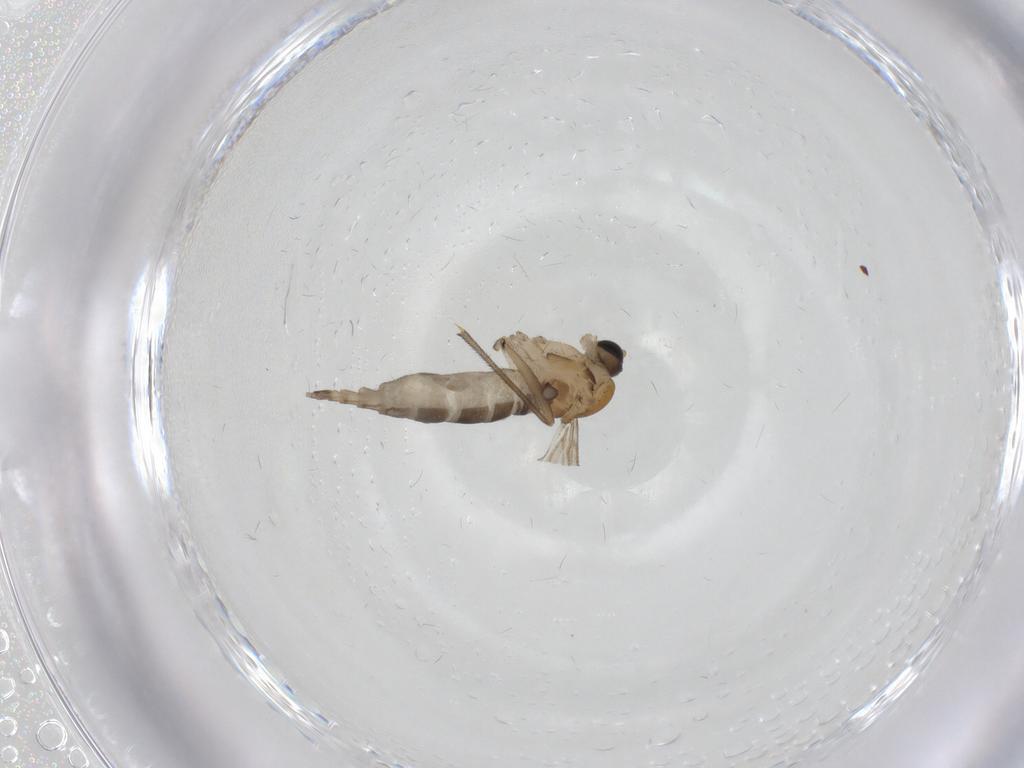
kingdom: Animalia
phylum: Arthropoda
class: Insecta
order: Diptera
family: Sciaridae
